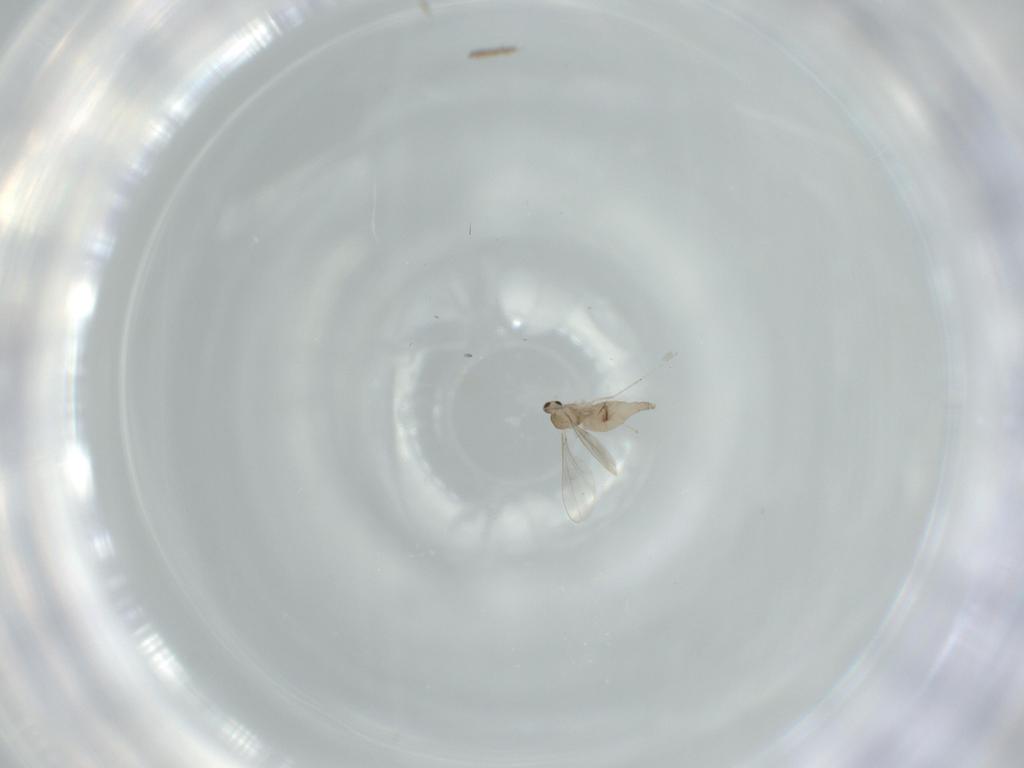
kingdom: Animalia
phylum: Arthropoda
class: Insecta
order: Diptera
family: Cecidomyiidae
